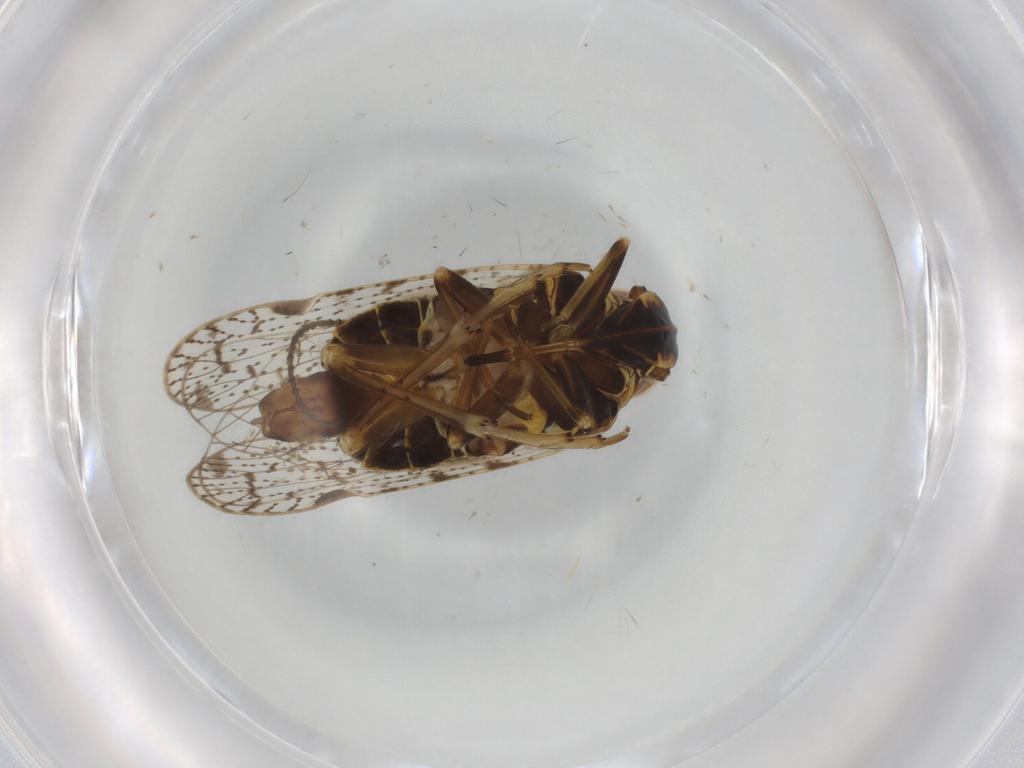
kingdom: Animalia
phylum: Arthropoda
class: Insecta
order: Hemiptera
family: Cixiidae
